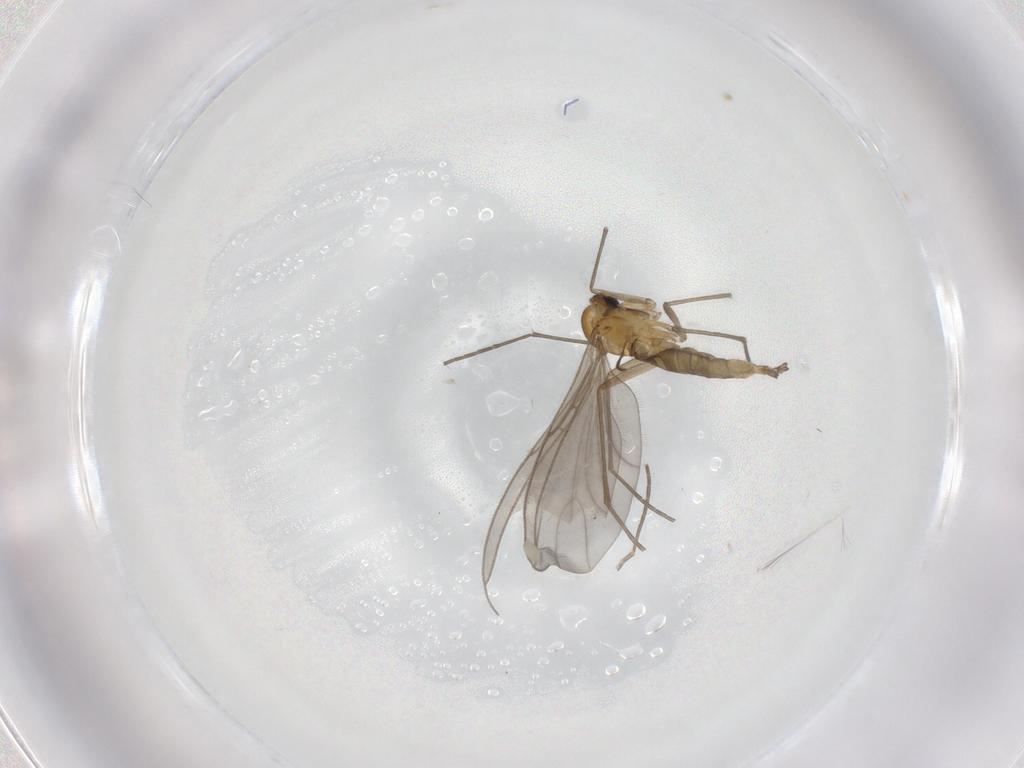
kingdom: Animalia
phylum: Arthropoda
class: Insecta
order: Diptera
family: Sciaridae
